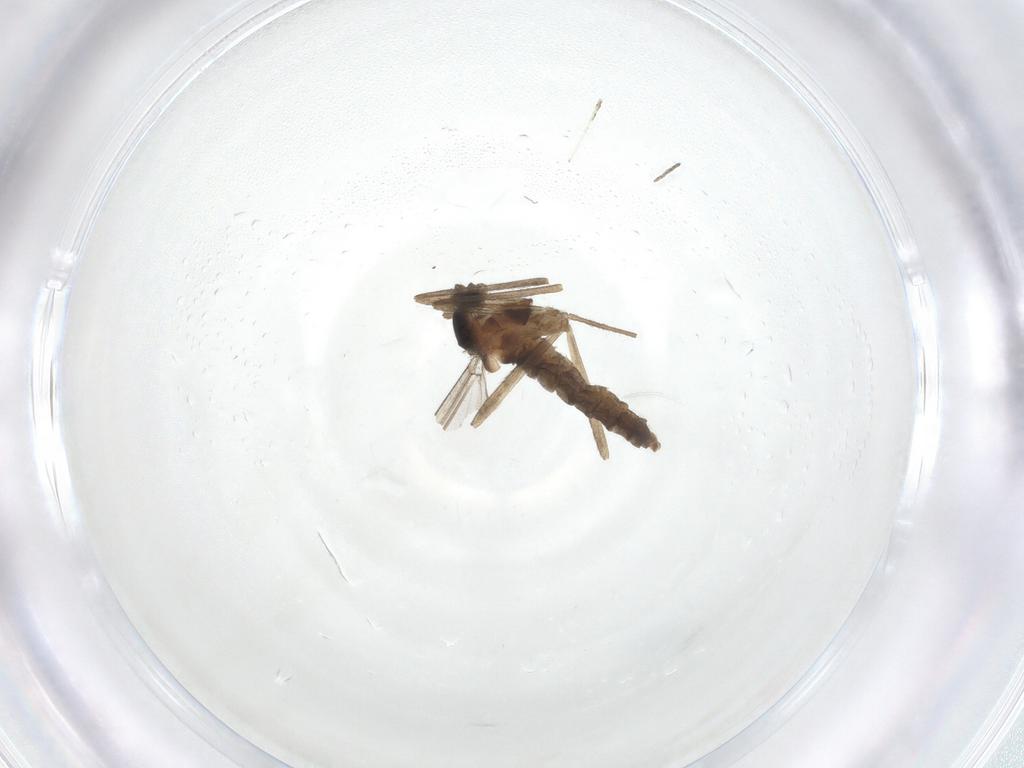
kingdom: Animalia
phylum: Arthropoda
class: Insecta
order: Diptera
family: Cecidomyiidae
